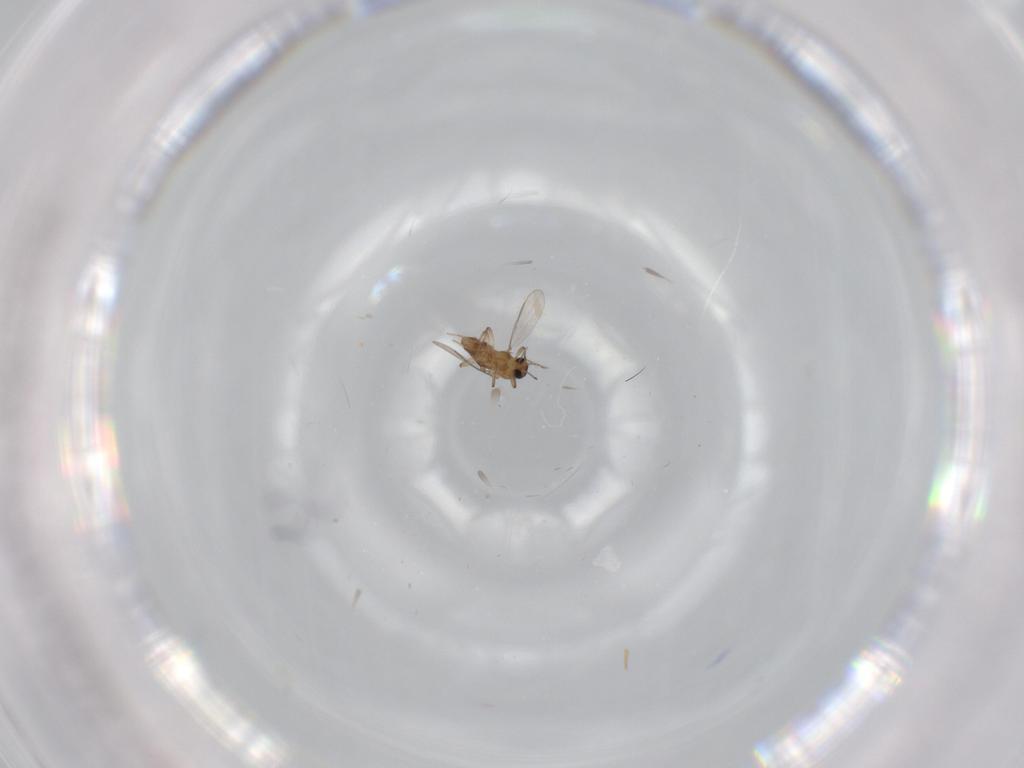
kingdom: Animalia
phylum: Arthropoda
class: Insecta
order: Diptera
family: Chironomidae
